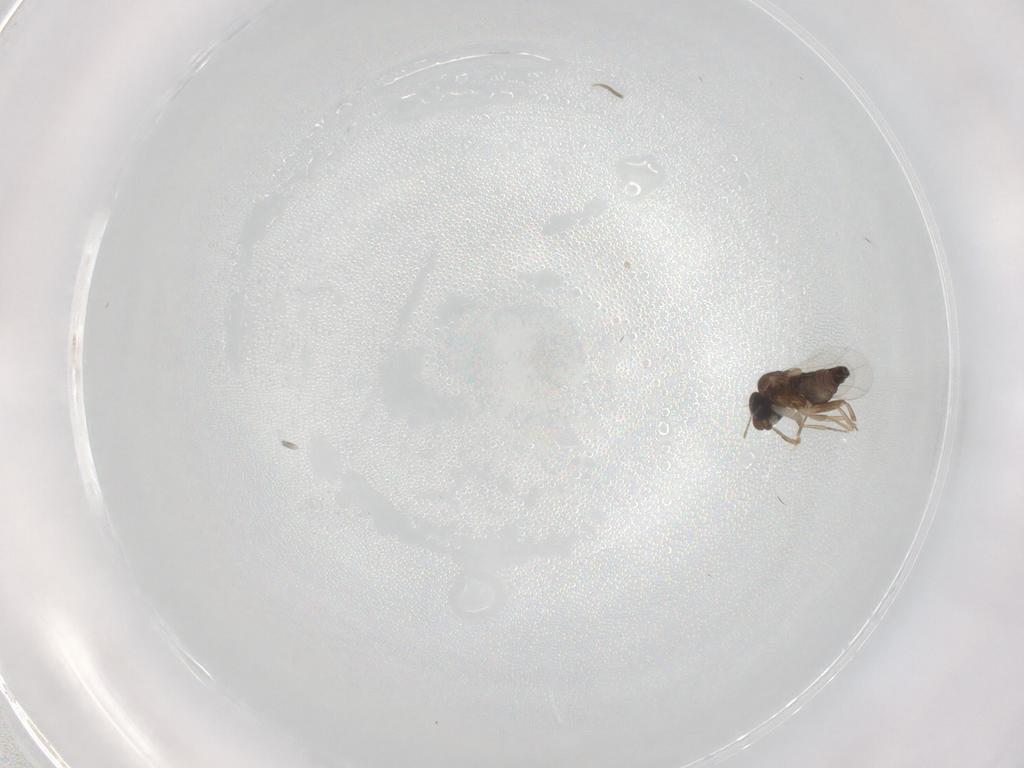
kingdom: Animalia
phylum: Arthropoda
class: Insecta
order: Diptera
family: Phoridae
